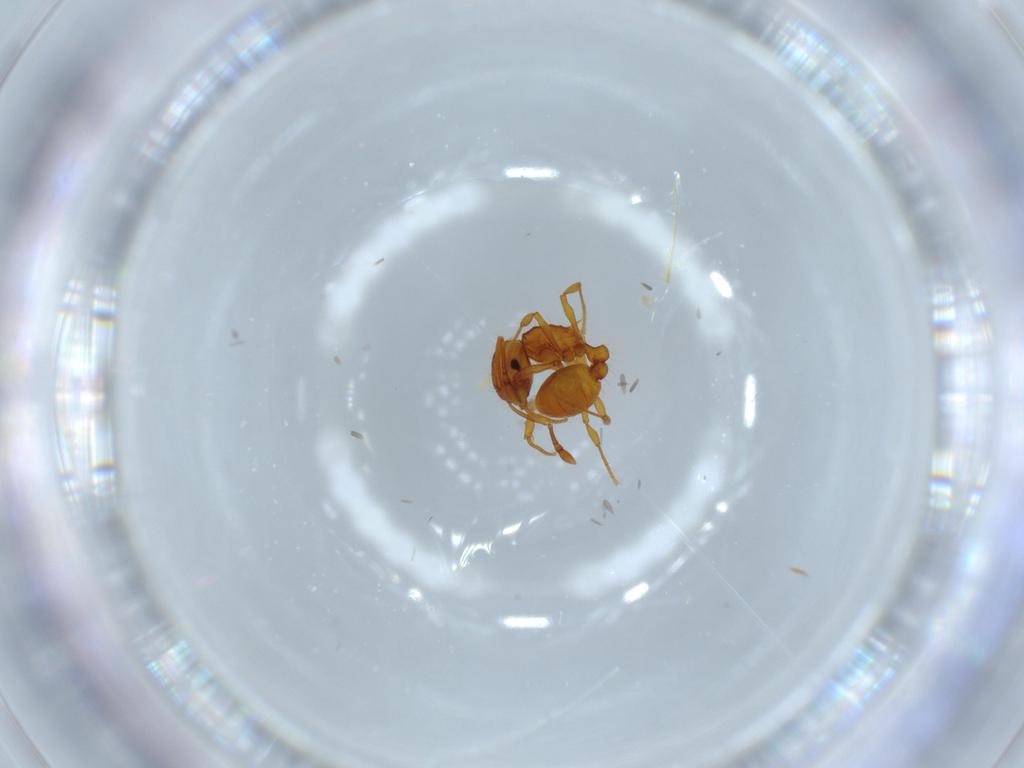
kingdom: Animalia
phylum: Arthropoda
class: Insecta
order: Hymenoptera
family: Formicidae
